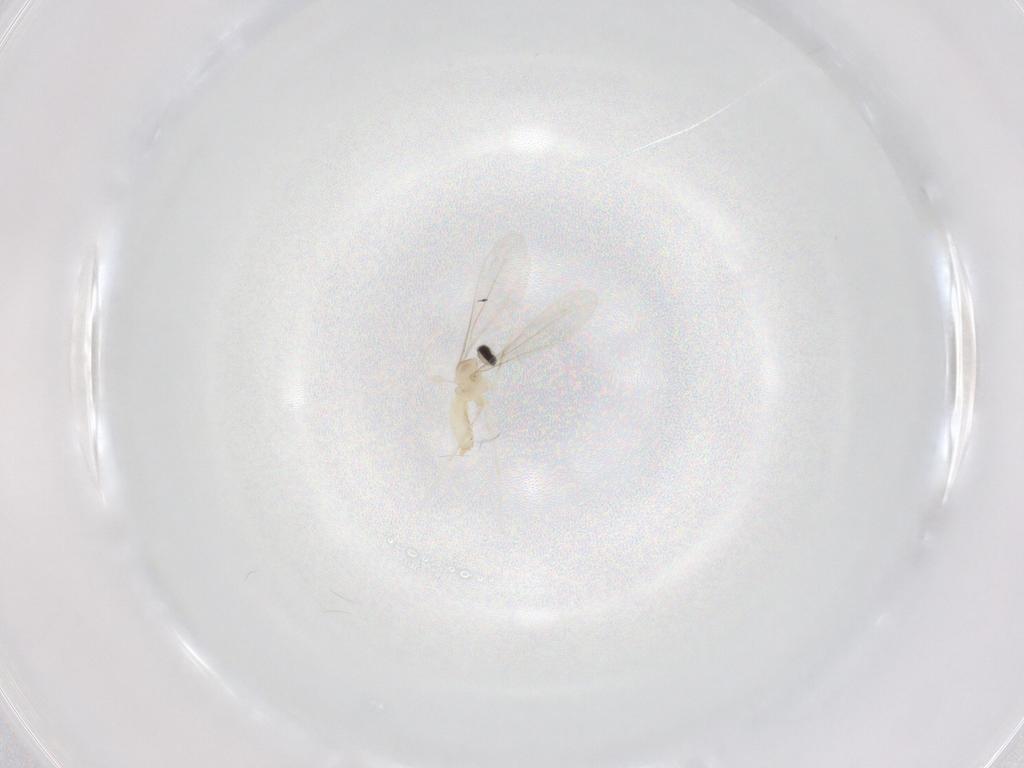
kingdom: Animalia
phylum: Arthropoda
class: Insecta
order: Diptera
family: Cecidomyiidae
